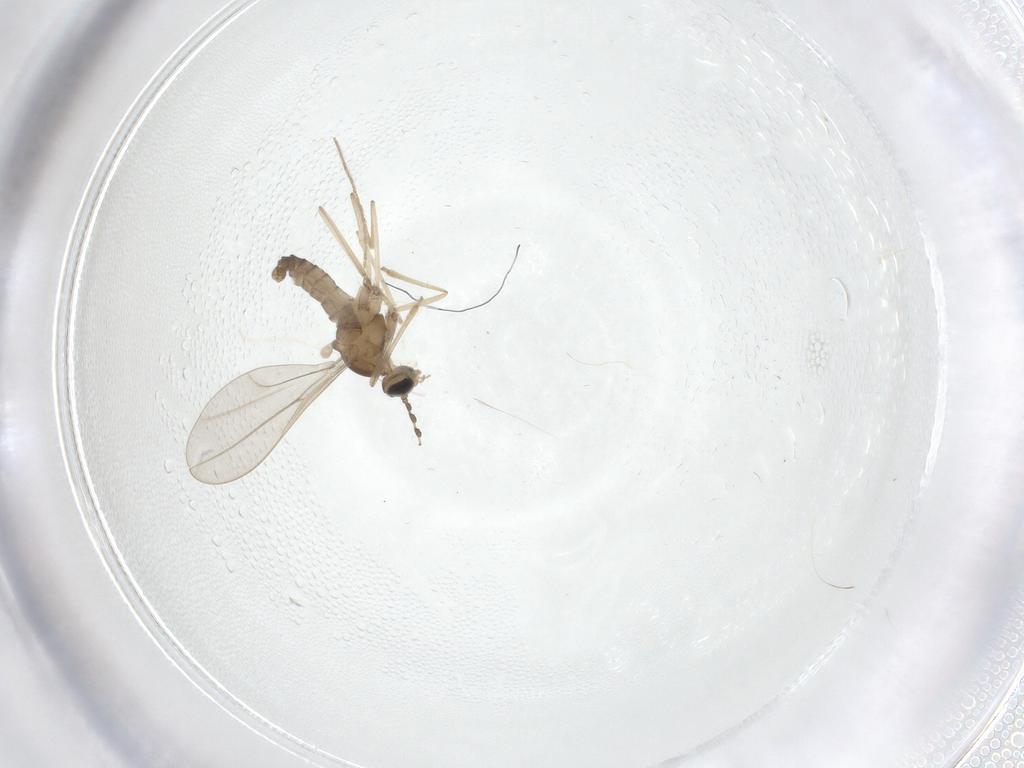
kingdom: Animalia
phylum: Arthropoda
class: Insecta
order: Diptera
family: Cecidomyiidae
